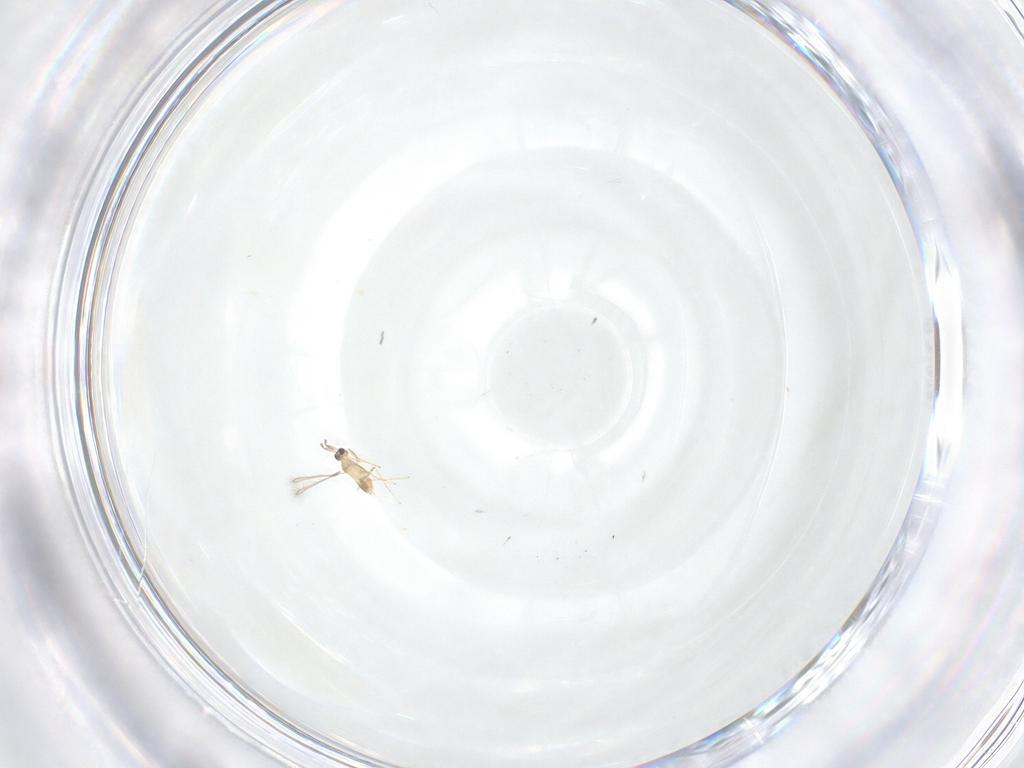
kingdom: Animalia
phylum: Arthropoda
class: Insecta
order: Hymenoptera
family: Mymaridae
